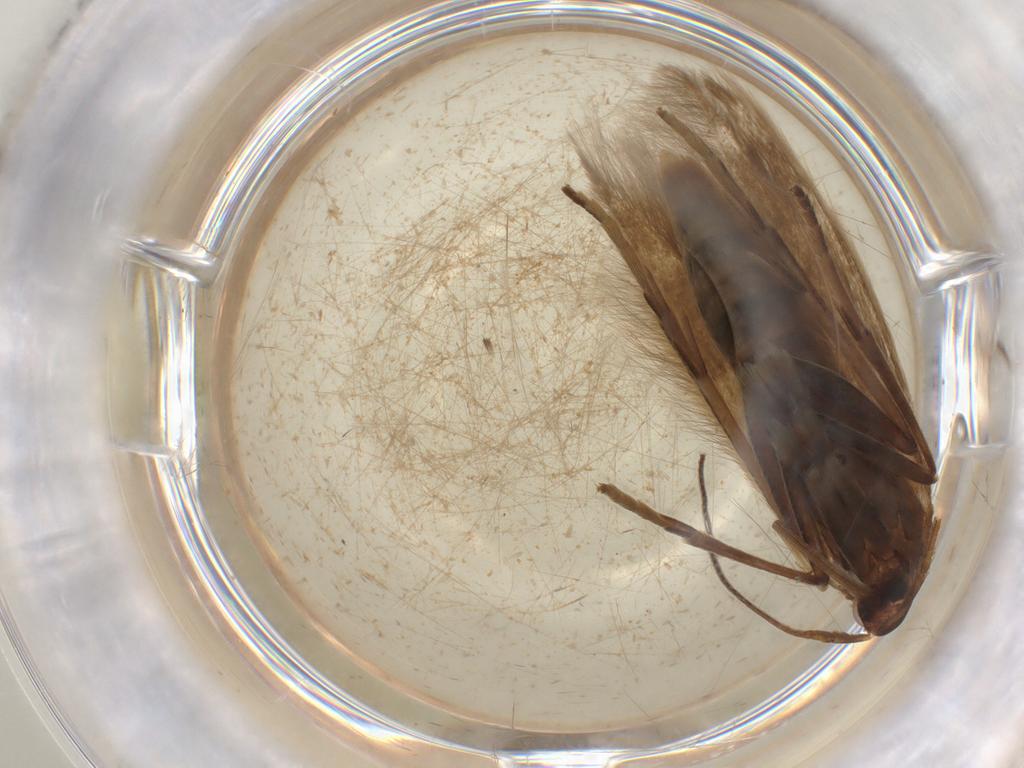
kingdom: Animalia
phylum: Arthropoda
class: Insecta
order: Lepidoptera
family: Coleophoridae
